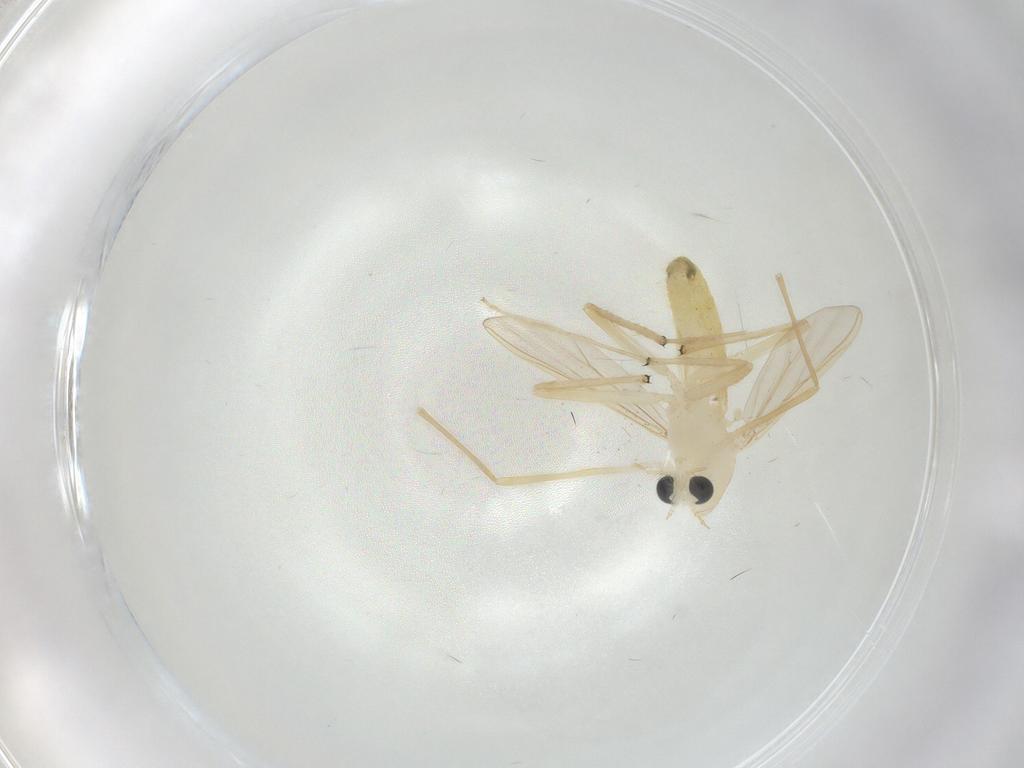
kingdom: Animalia
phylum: Arthropoda
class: Insecta
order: Diptera
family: Chironomidae
